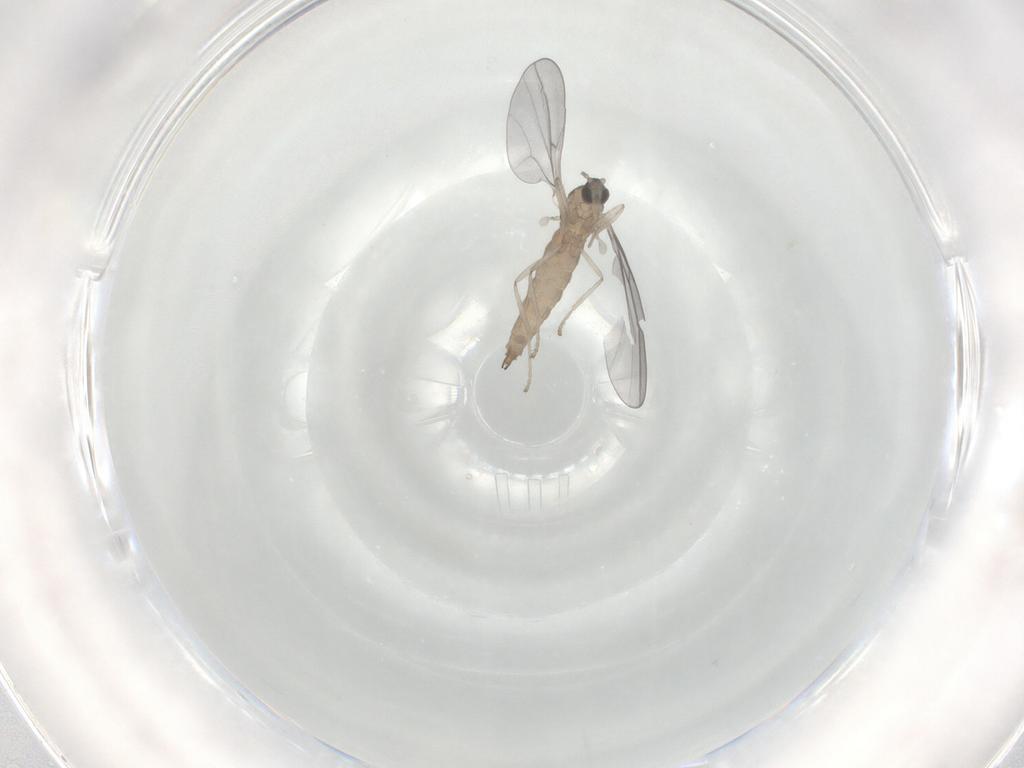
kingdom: Animalia
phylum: Arthropoda
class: Insecta
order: Diptera
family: Cecidomyiidae
